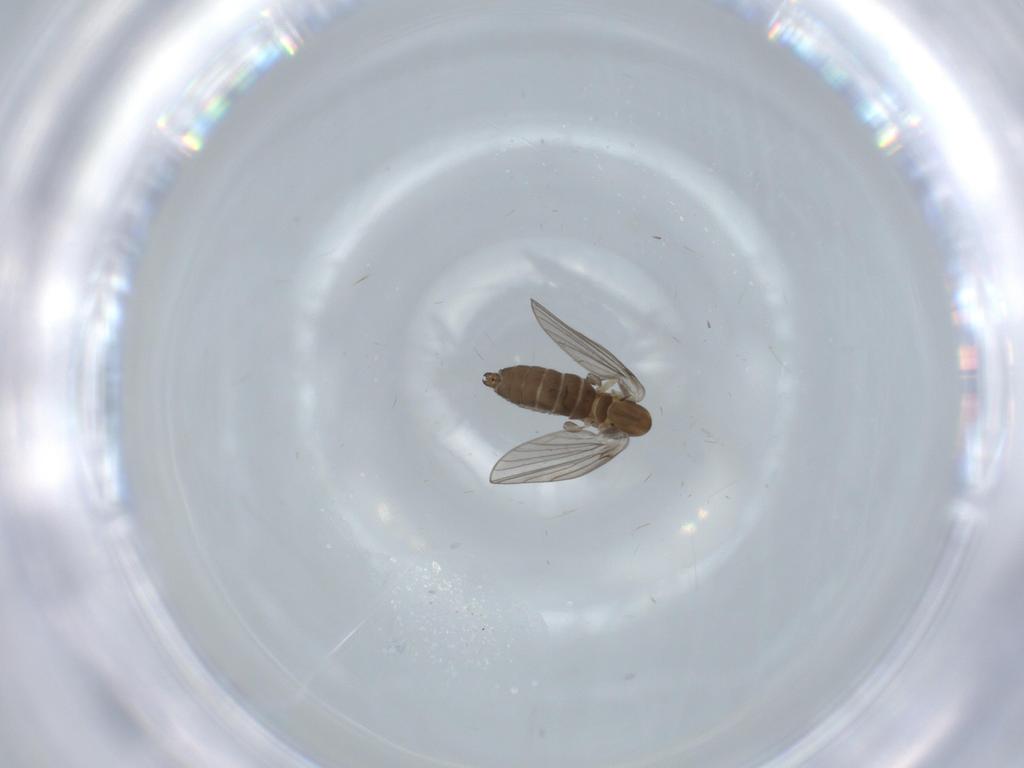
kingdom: Animalia
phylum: Arthropoda
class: Insecta
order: Diptera
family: Psychodidae
